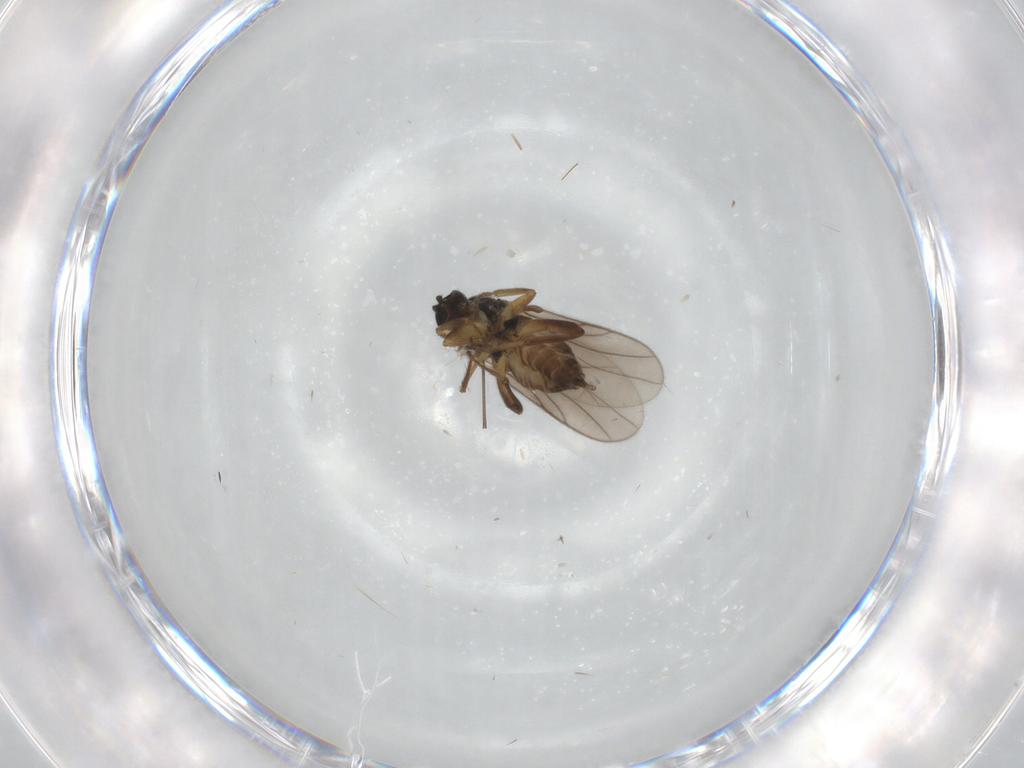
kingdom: Animalia
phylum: Arthropoda
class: Insecta
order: Diptera
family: Hybotidae
